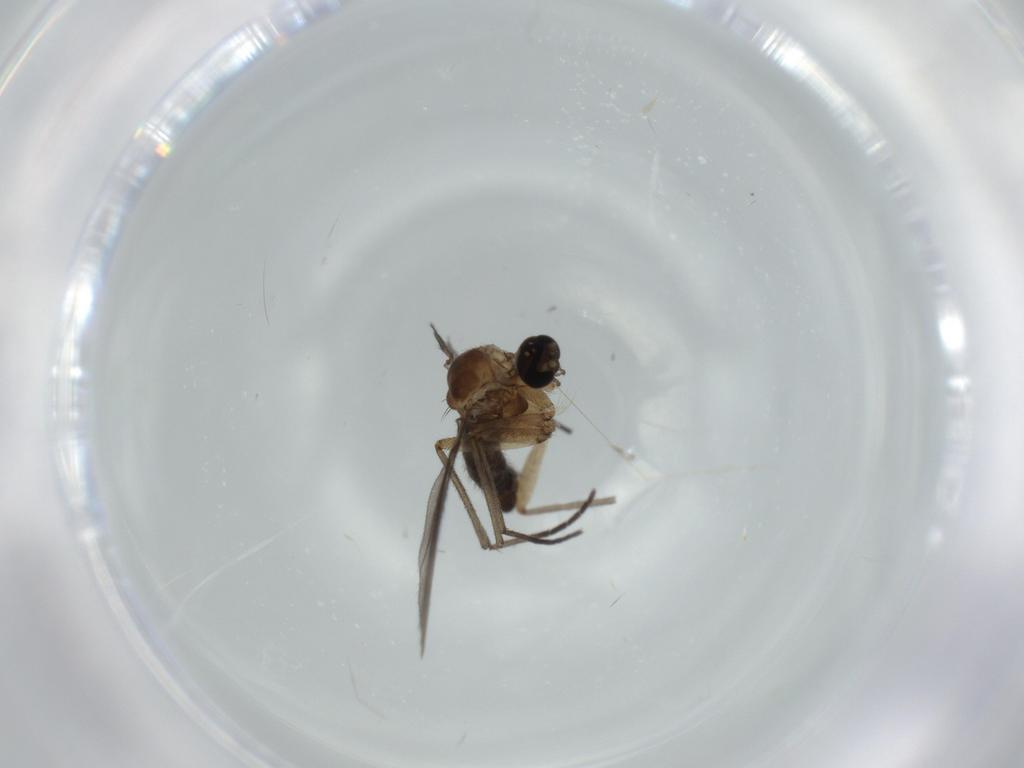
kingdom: Animalia
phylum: Arthropoda
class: Insecta
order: Diptera
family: Sciaridae
